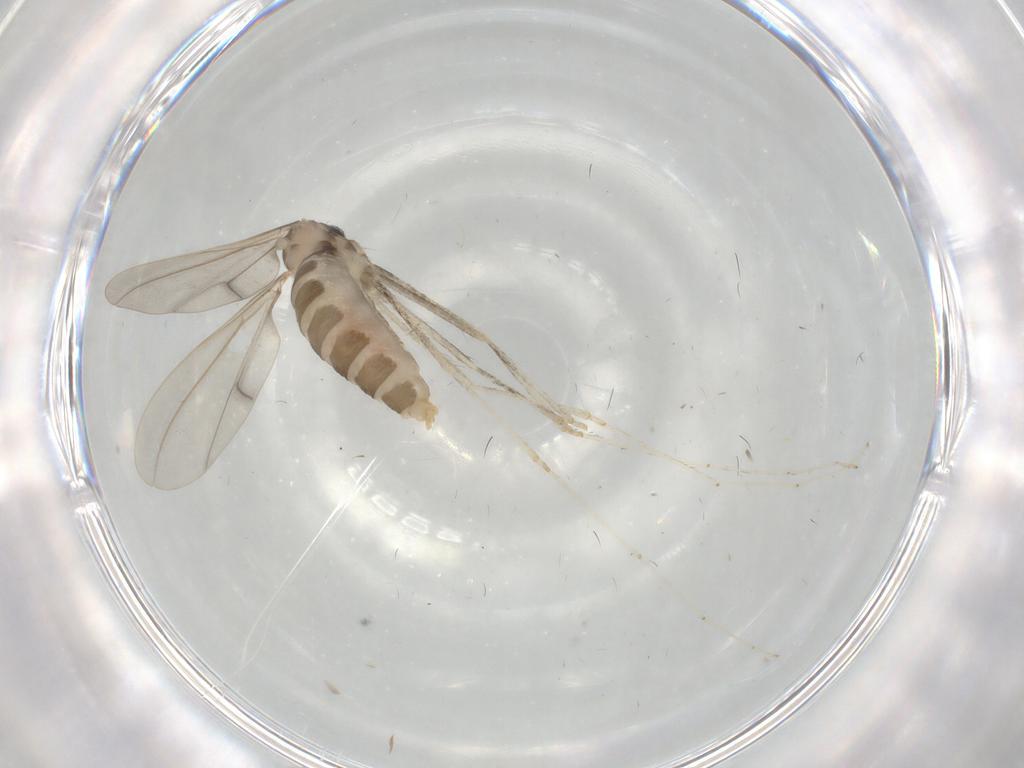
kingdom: Animalia
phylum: Arthropoda
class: Insecta
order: Diptera
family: Cecidomyiidae
